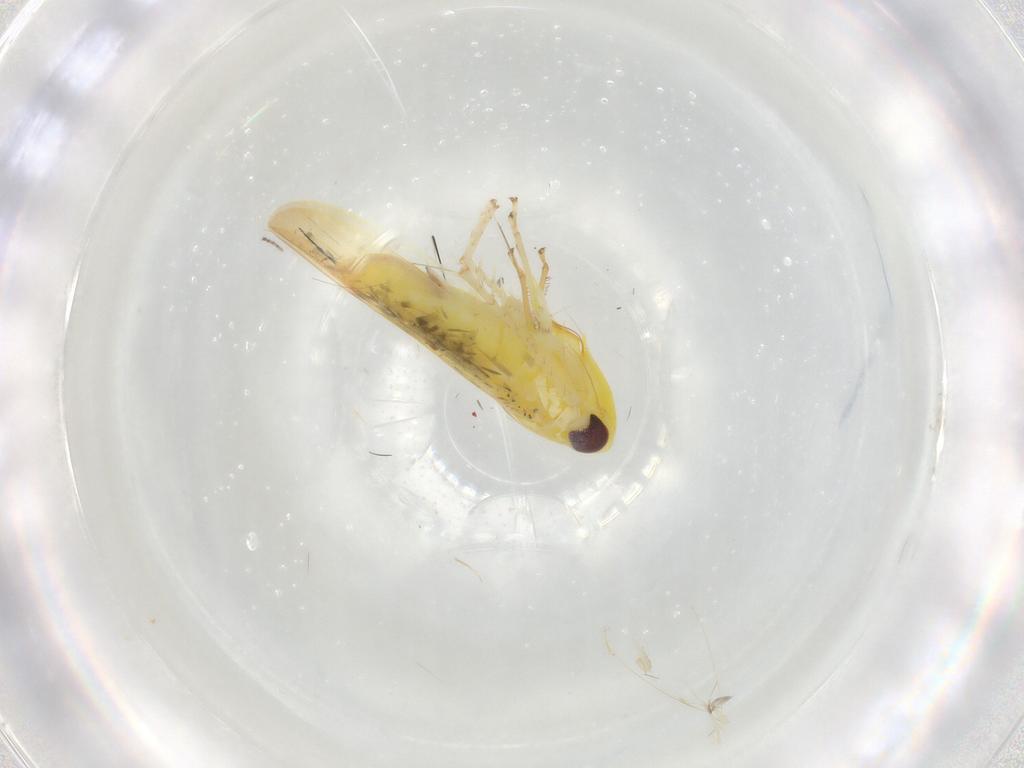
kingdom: Animalia
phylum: Arthropoda
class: Insecta
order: Hemiptera
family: Cicadellidae
